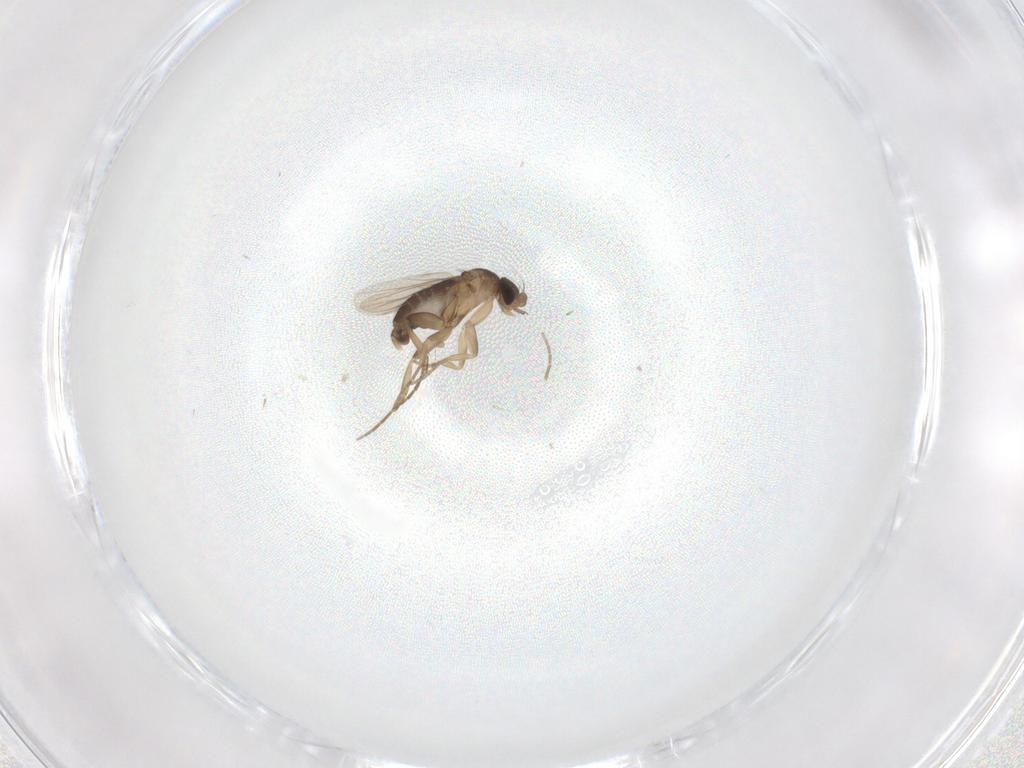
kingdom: Animalia
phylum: Arthropoda
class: Insecta
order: Diptera
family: Phoridae
